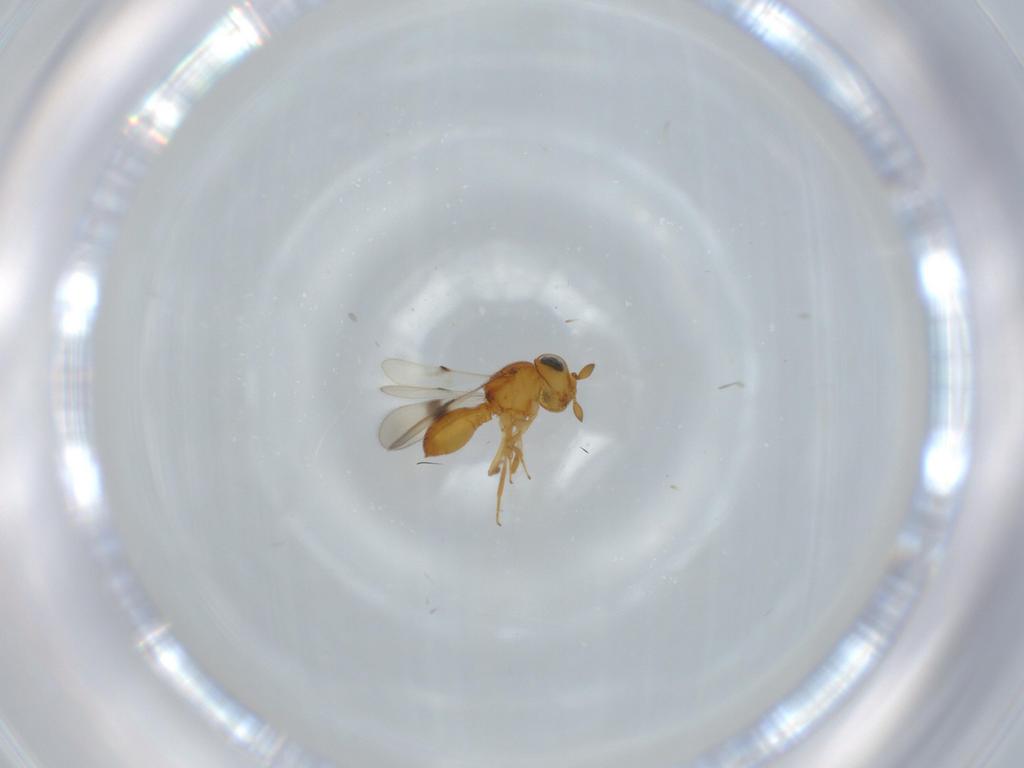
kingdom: Animalia
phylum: Arthropoda
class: Insecta
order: Hymenoptera
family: Scelionidae
